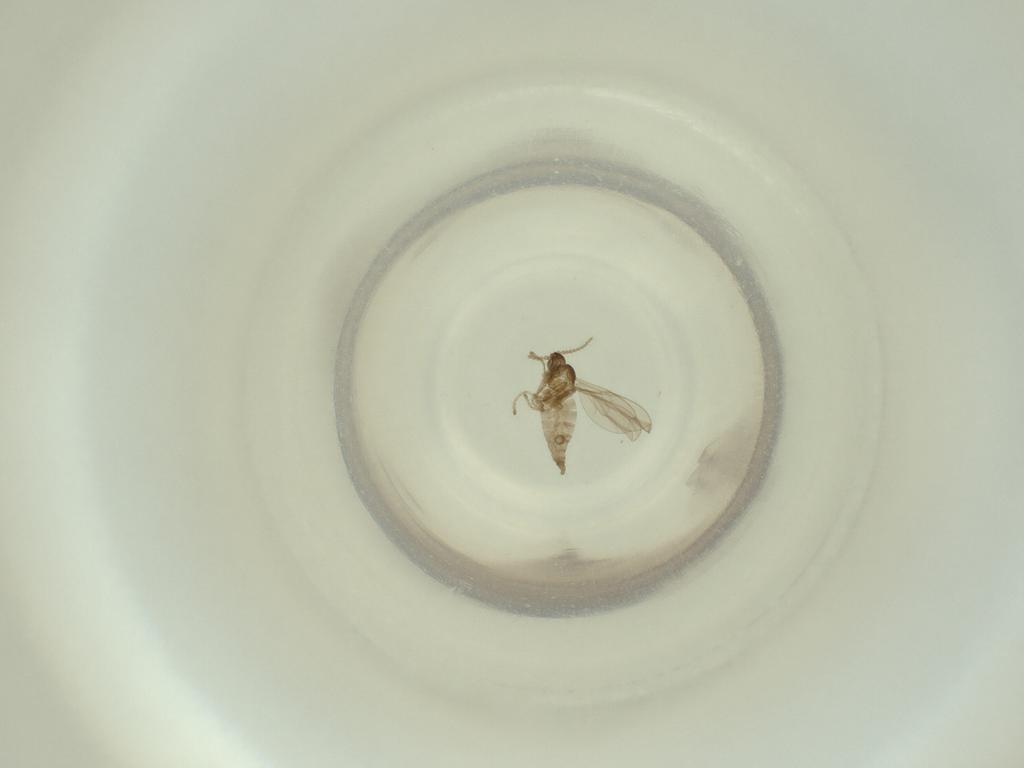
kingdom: Animalia
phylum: Arthropoda
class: Insecta
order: Diptera
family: Cecidomyiidae
